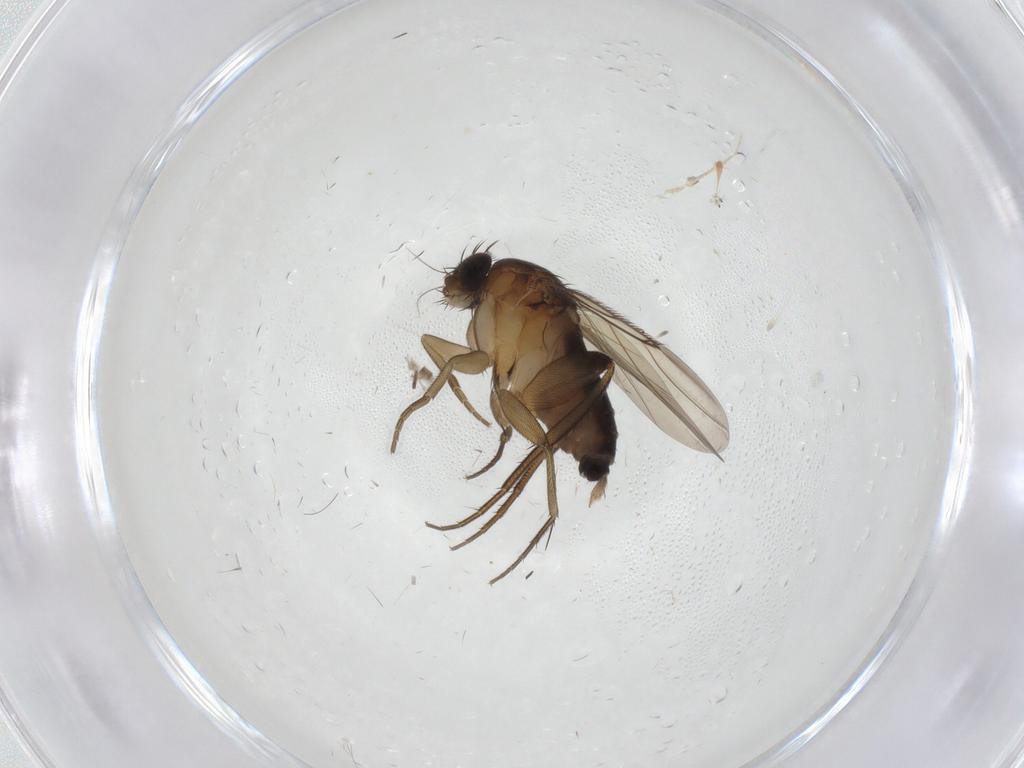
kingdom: Animalia
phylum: Arthropoda
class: Insecta
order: Diptera
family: Phoridae
